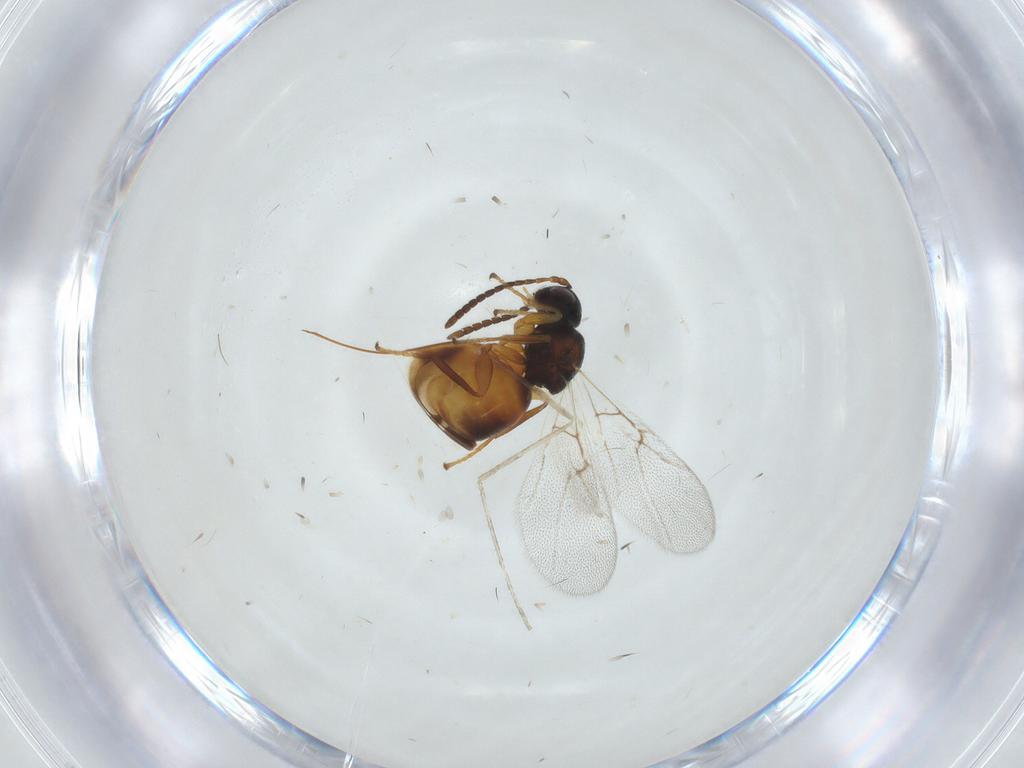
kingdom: Animalia
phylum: Arthropoda
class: Insecta
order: Hymenoptera
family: Cynipidae
